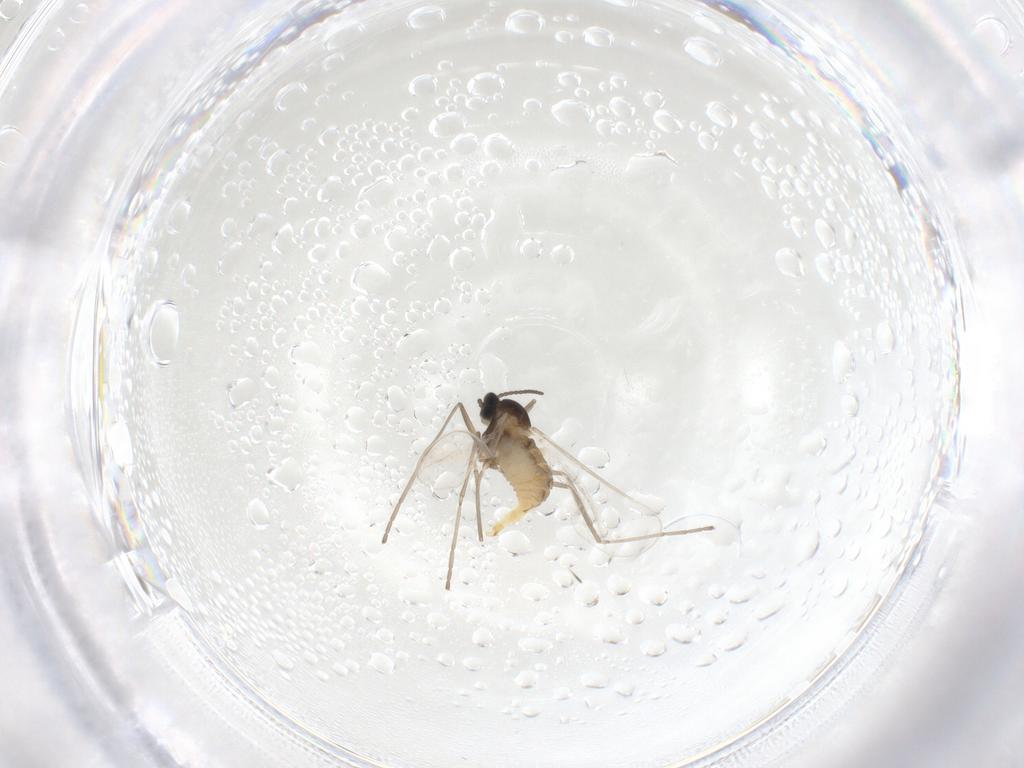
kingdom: Animalia
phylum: Arthropoda
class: Insecta
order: Diptera
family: Cecidomyiidae
